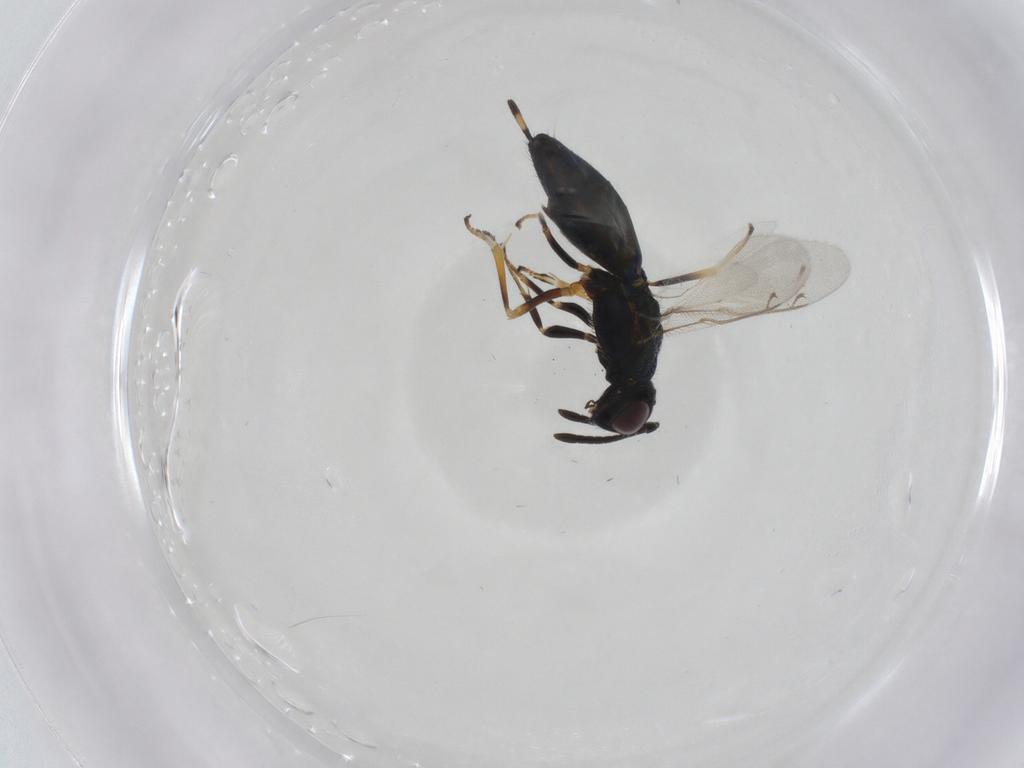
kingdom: Animalia
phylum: Arthropoda
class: Insecta
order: Hymenoptera
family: Eupelmidae
